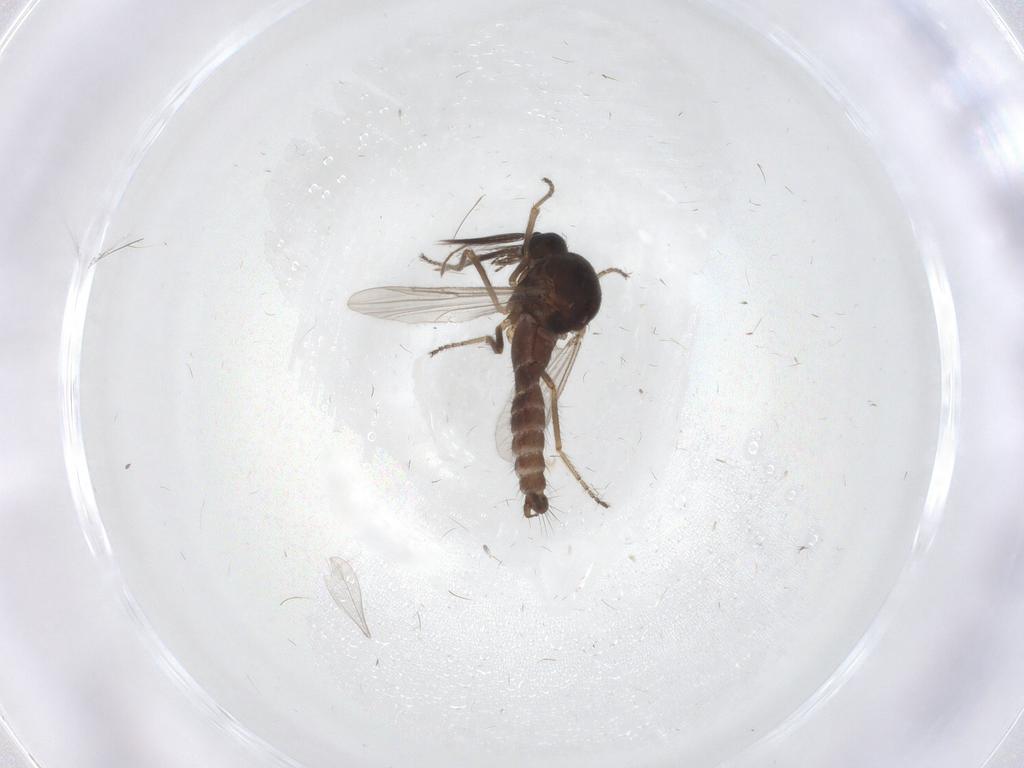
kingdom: Animalia
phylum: Arthropoda
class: Insecta
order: Diptera
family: Ceratopogonidae
